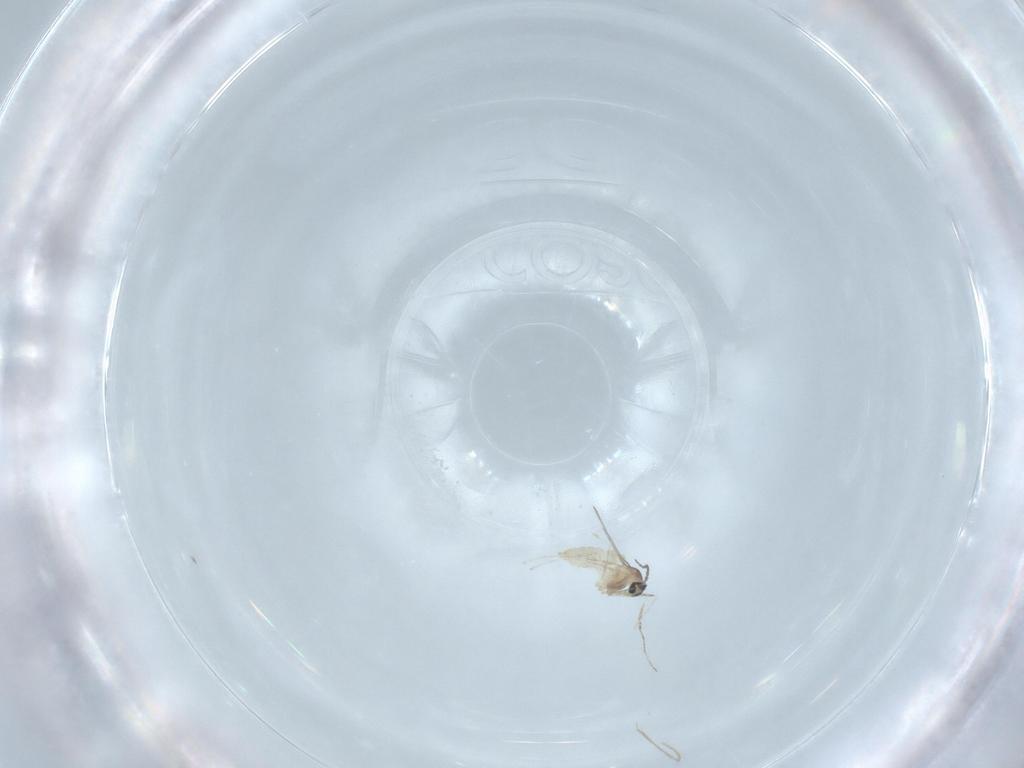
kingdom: Animalia
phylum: Arthropoda
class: Insecta
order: Diptera
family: Cecidomyiidae
